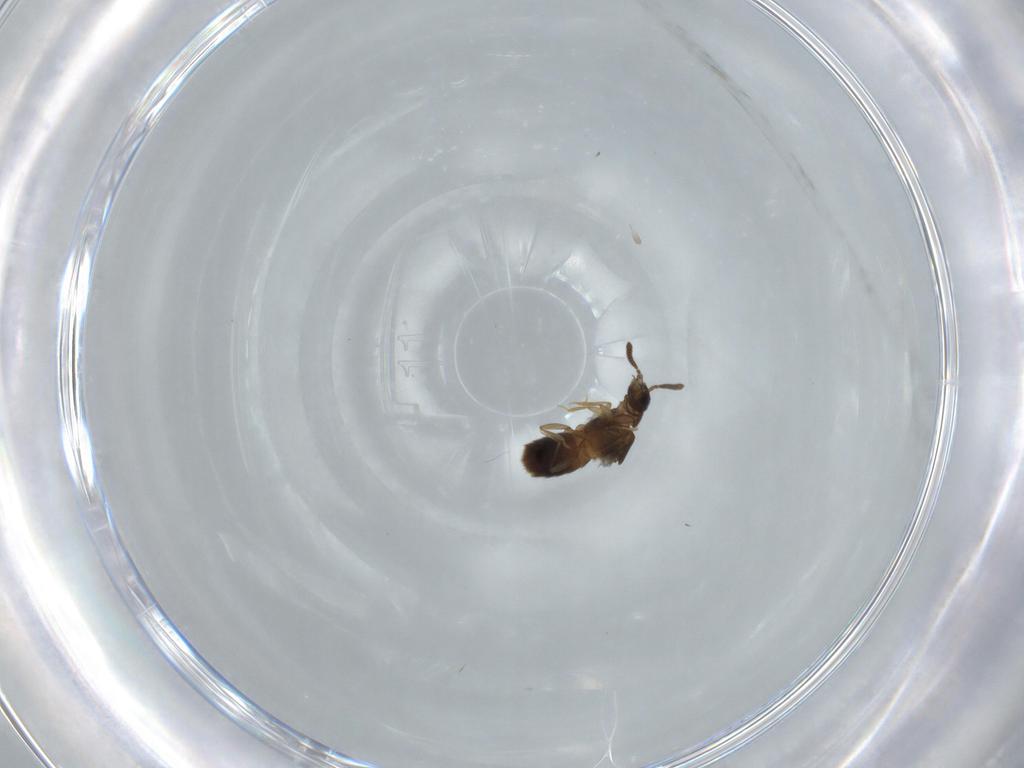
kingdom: Animalia
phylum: Arthropoda
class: Insecta
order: Coleoptera
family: Staphylinidae
